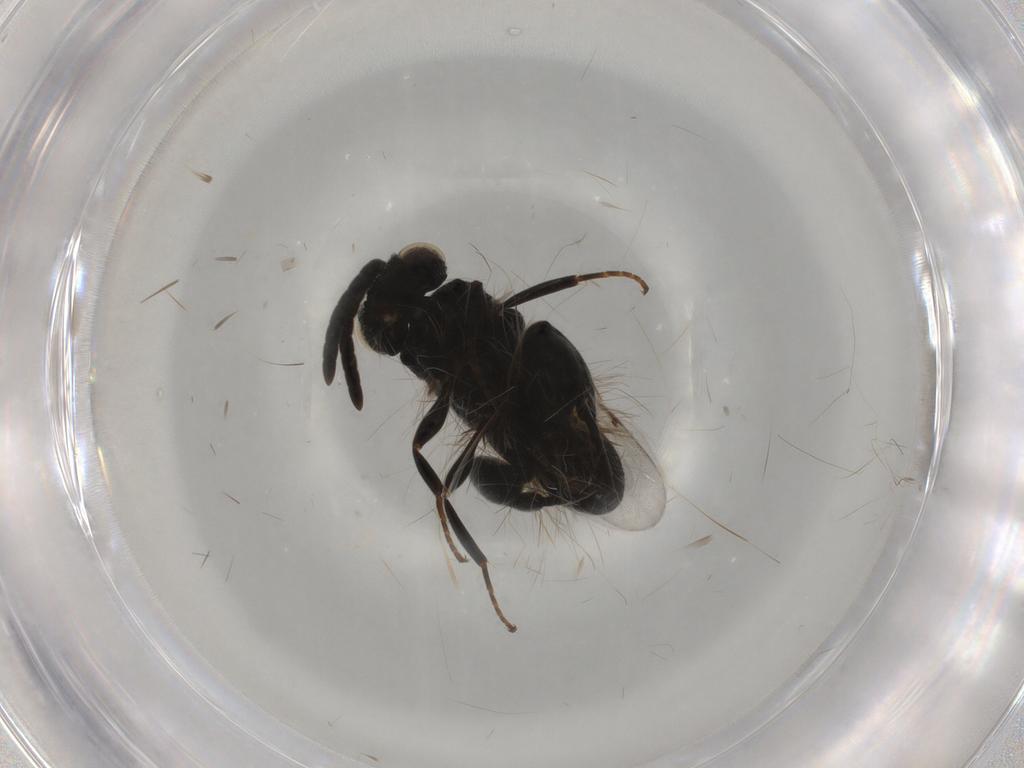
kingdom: Animalia
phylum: Arthropoda
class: Insecta
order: Hymenoptera
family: Chalcididae
